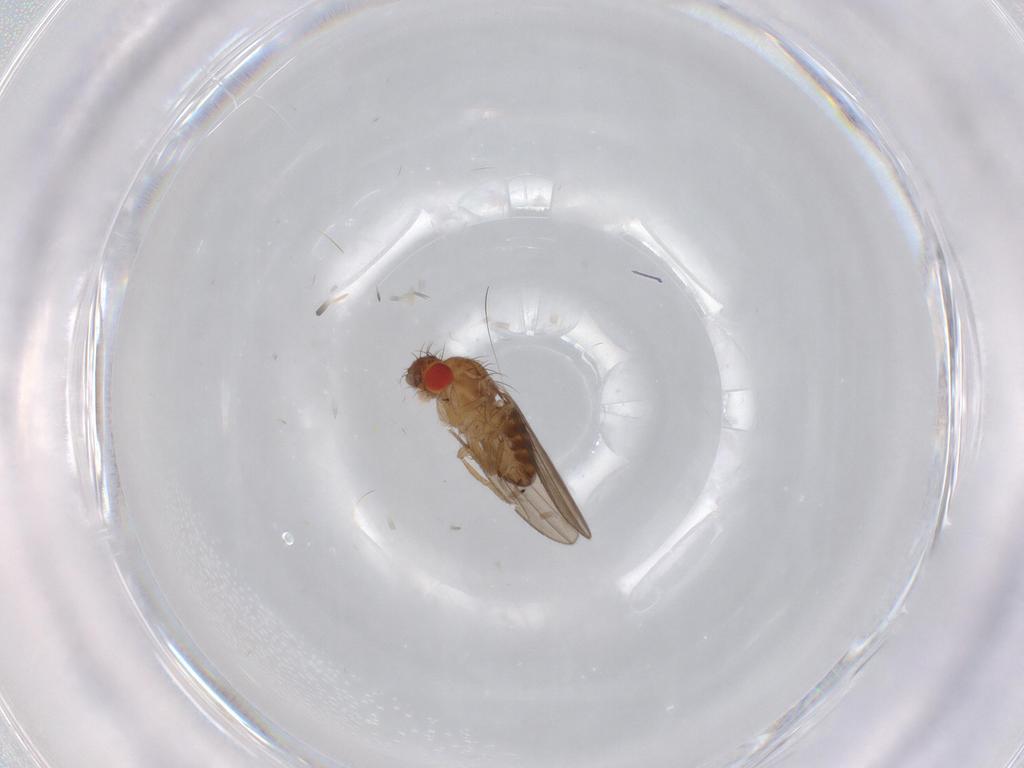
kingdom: Animalia
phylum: Arthropoda
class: Insecta
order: Diptera
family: Drosophilidae
